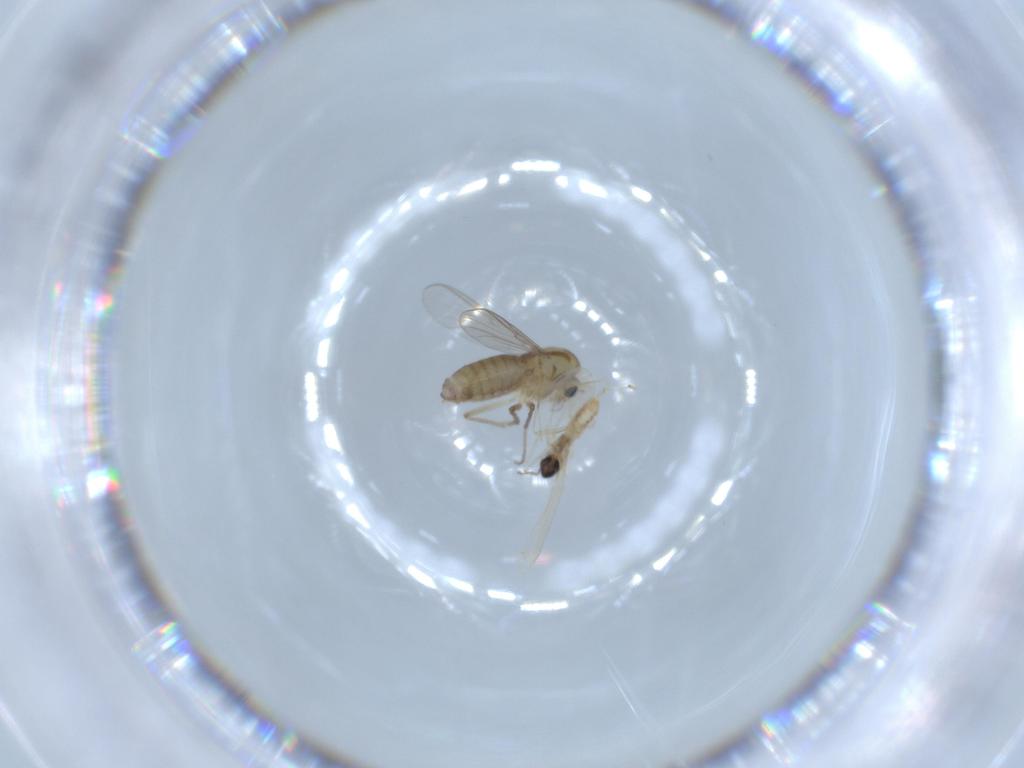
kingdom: Animalia
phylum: Arthropoda
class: Insecta
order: Diptera
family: Chironomidae
